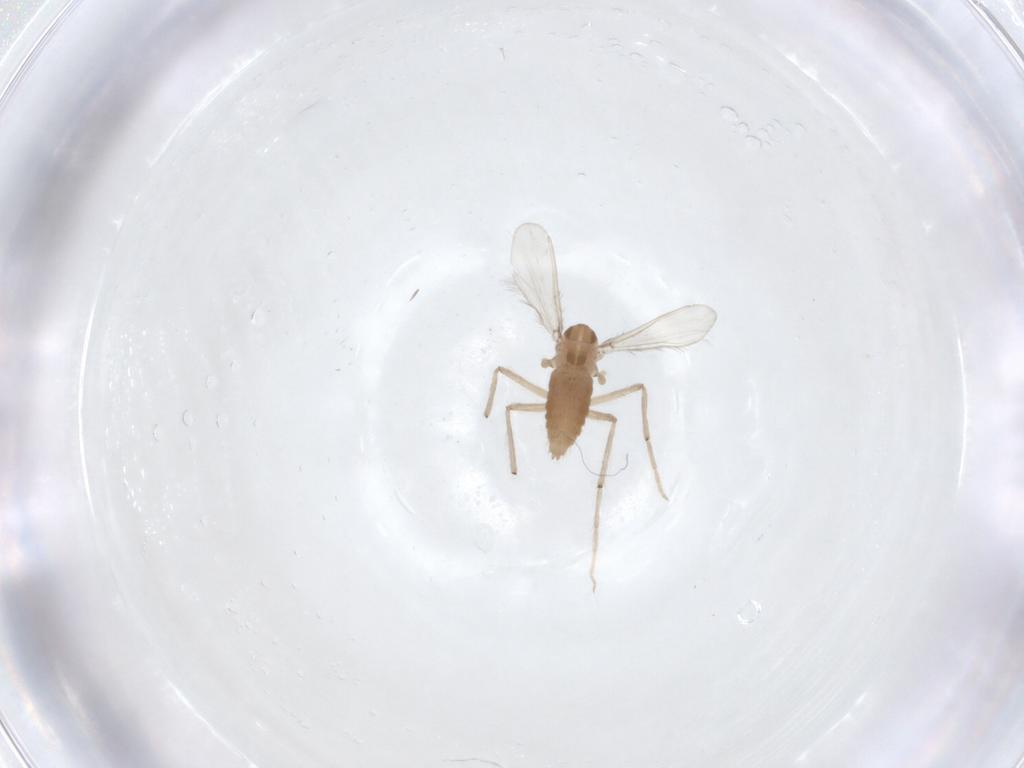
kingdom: Animalia
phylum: Arthropoda
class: Insecta
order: Diptera
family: Chironomidae
